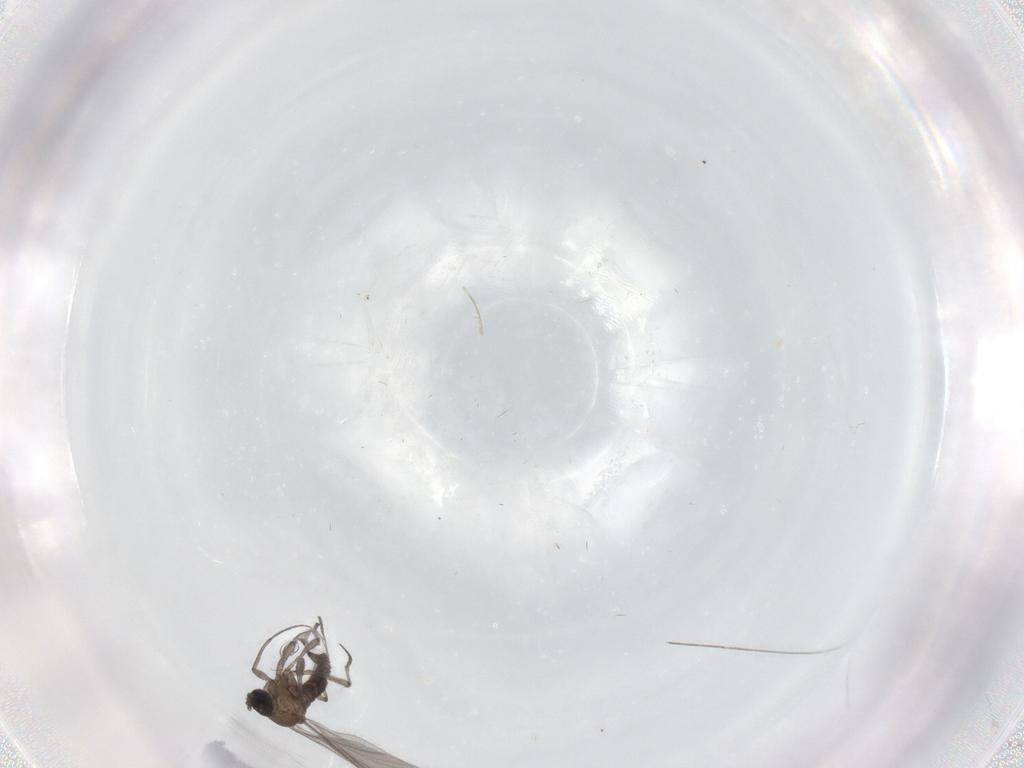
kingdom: Animalia
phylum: Arthropoda
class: Insecta
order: Diptera
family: Sciaridae
